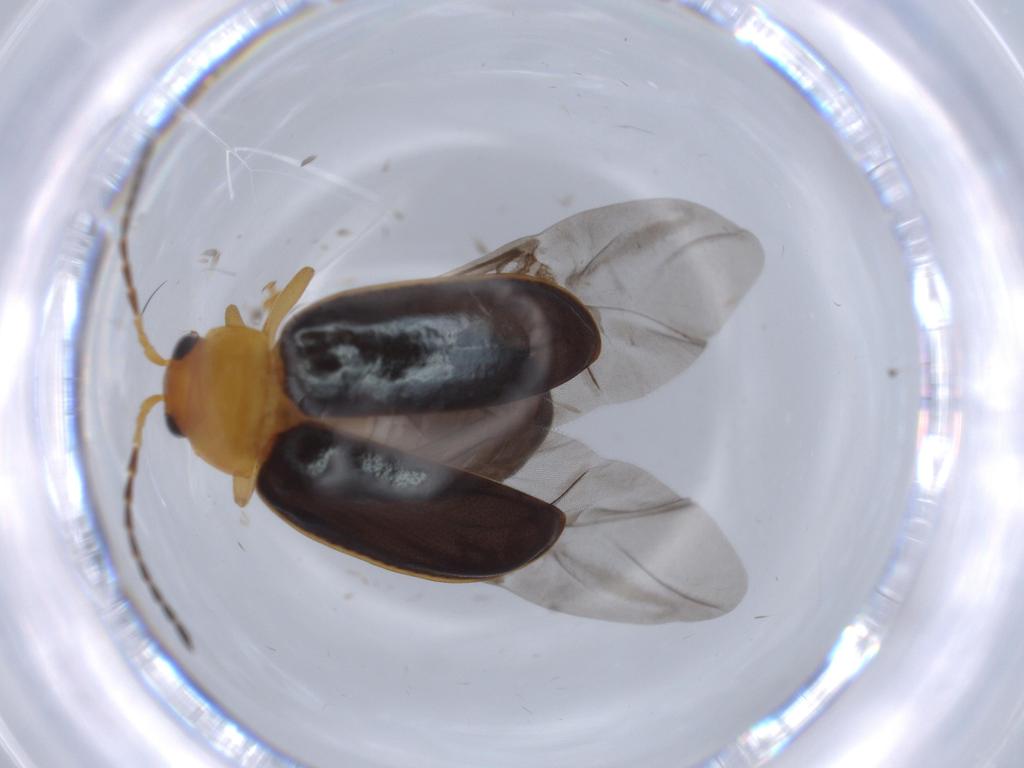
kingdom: Animalia
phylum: Arthropoda
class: Insecta
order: Coleoptera
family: Chrysomelidae
